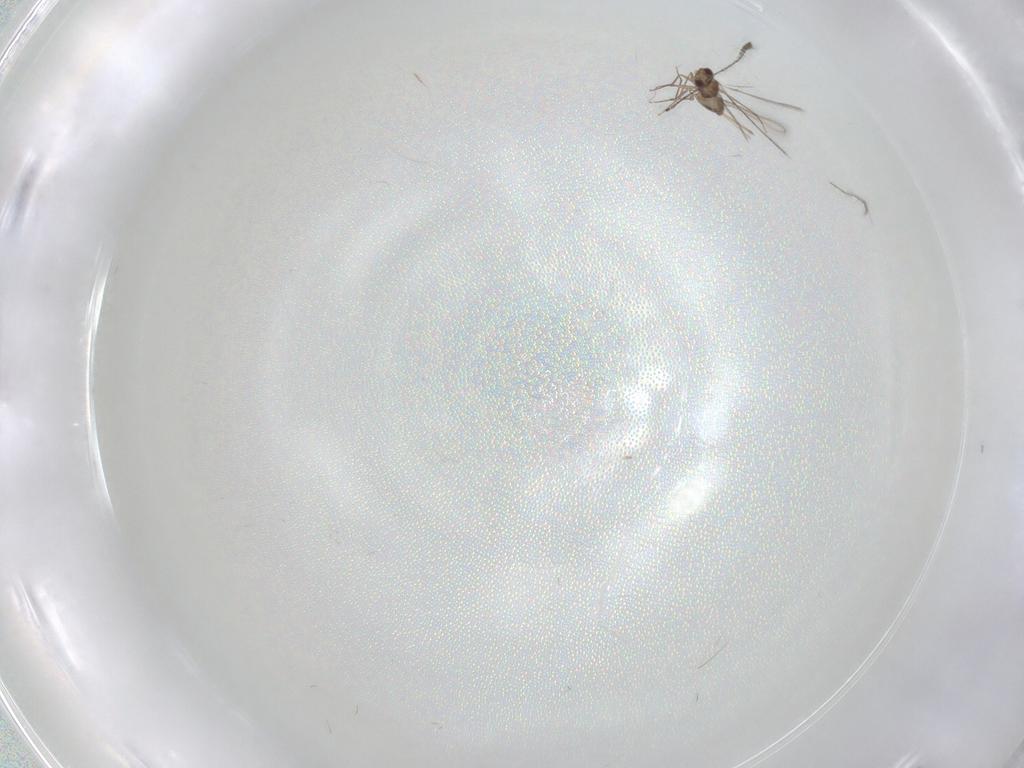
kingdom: Animalia
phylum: Arthropoda
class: Insecta
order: Hymenoptera
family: Mymaridae
